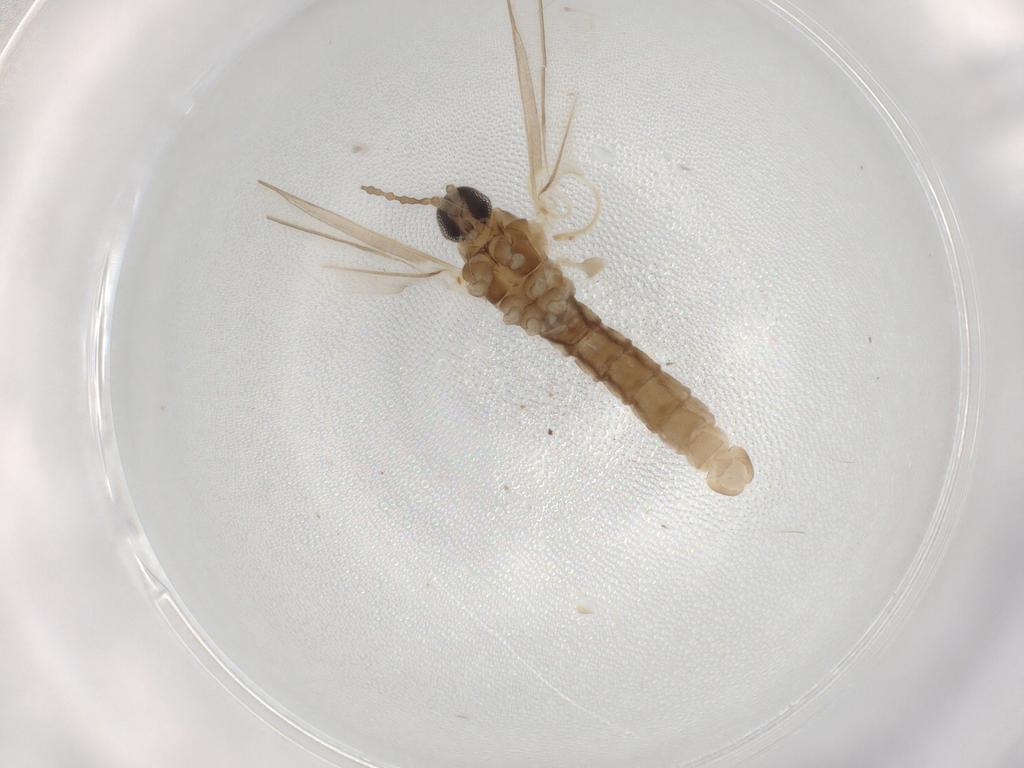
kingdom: Animalia
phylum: Arthropoda
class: Insecta
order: Diptera
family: Cecidomyiidae
